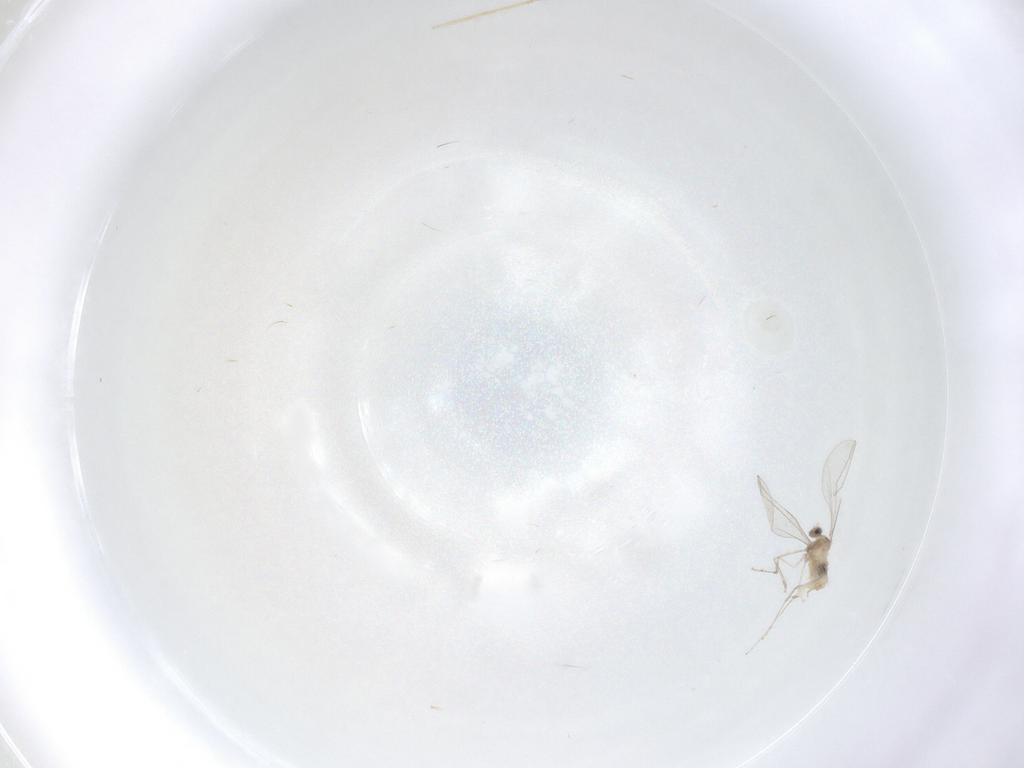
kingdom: Animalia
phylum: Arthropoda
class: Insecta
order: Diptera
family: Cecidomyiidae
